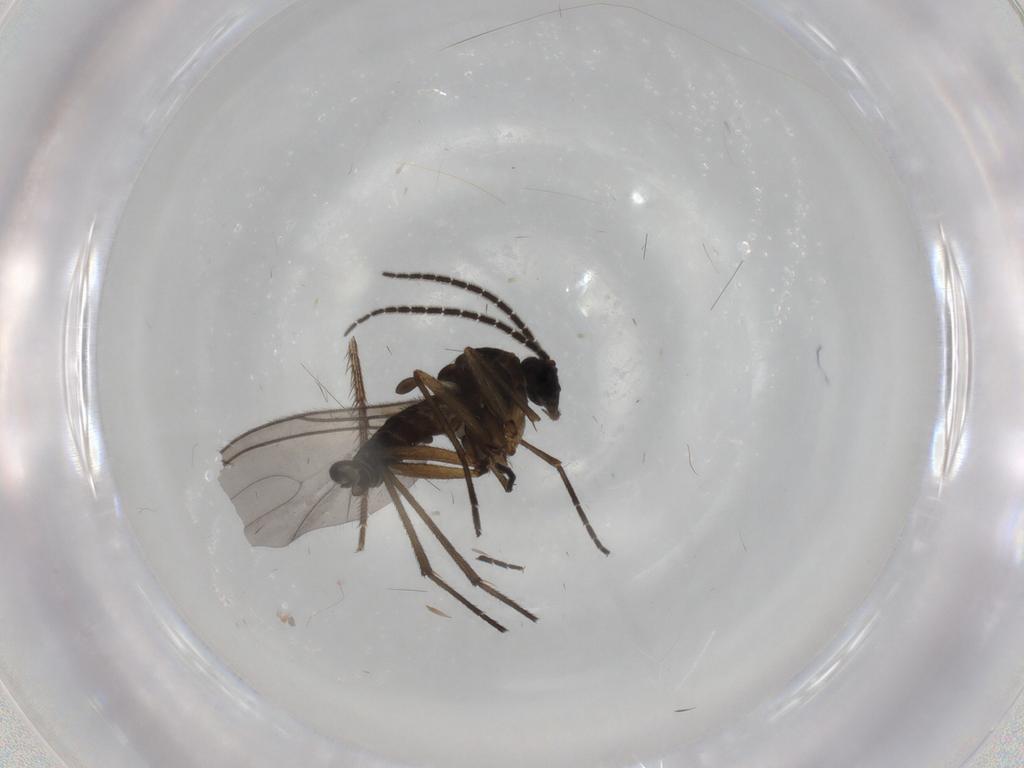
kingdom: Animalia
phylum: Arthropoda
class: Insecta
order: Diptera
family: Sciaridae
